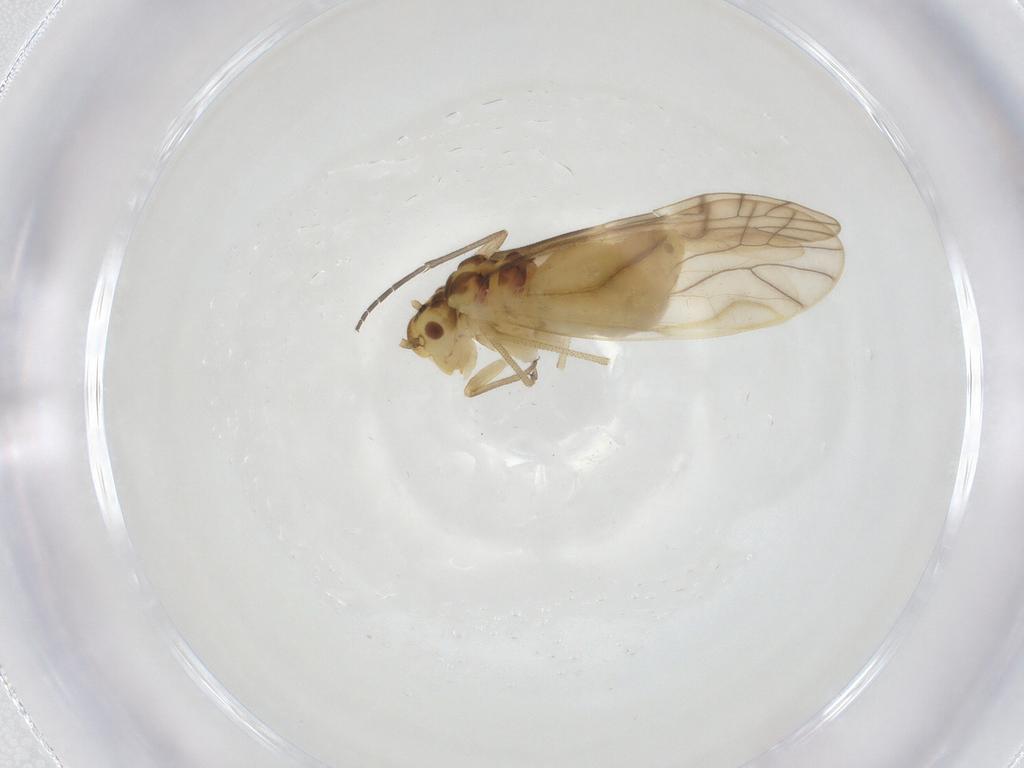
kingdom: Animalia
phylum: Arthropoda
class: Insecta
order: Psocodea
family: Caeciliusidae
